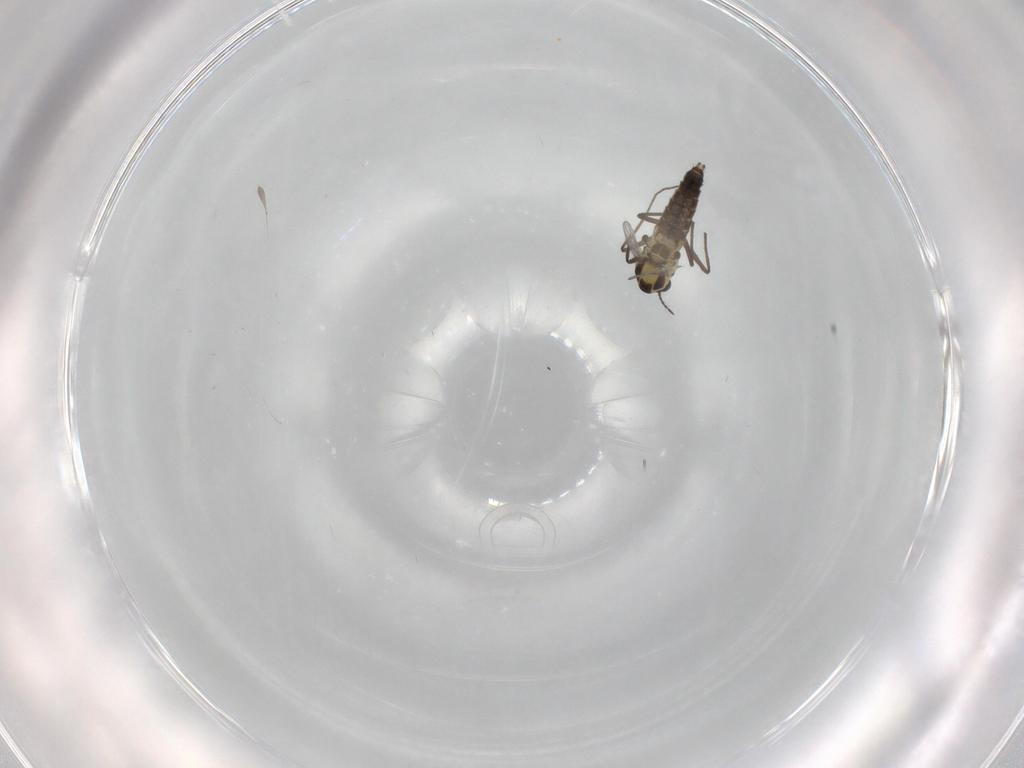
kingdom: Animalia
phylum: Arthropoda
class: Insecta
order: Diptera
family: Chironomidae
